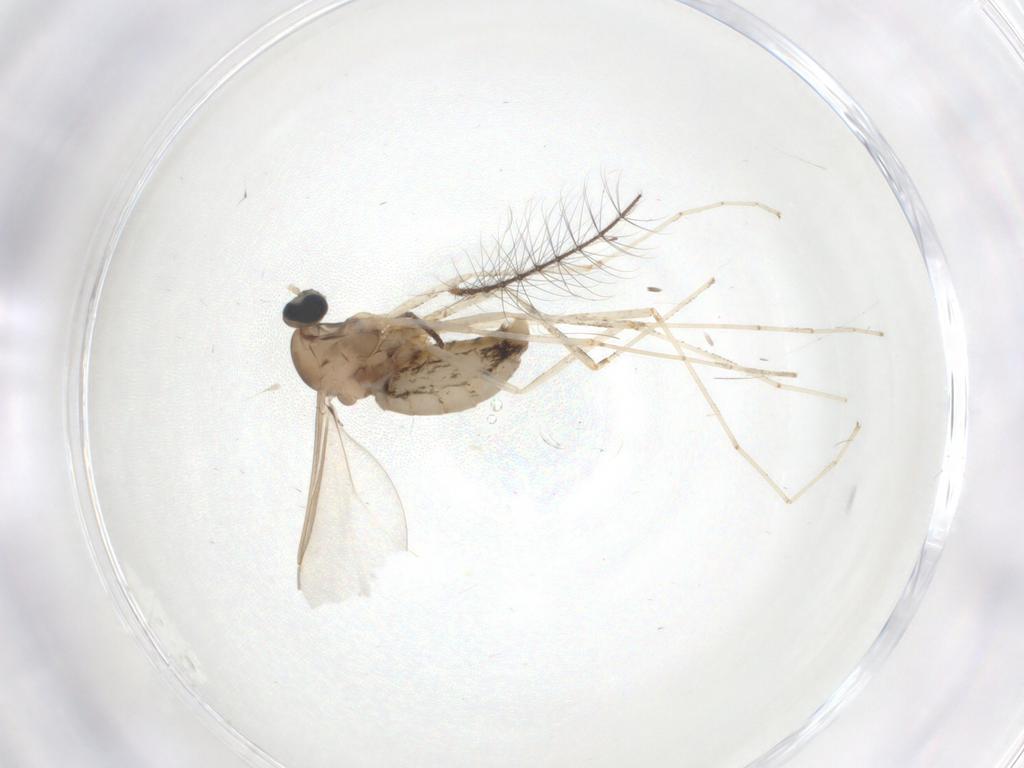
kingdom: Animalia
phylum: Arthropoda
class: Insecta
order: Diptera
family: Cecidomyiidae
